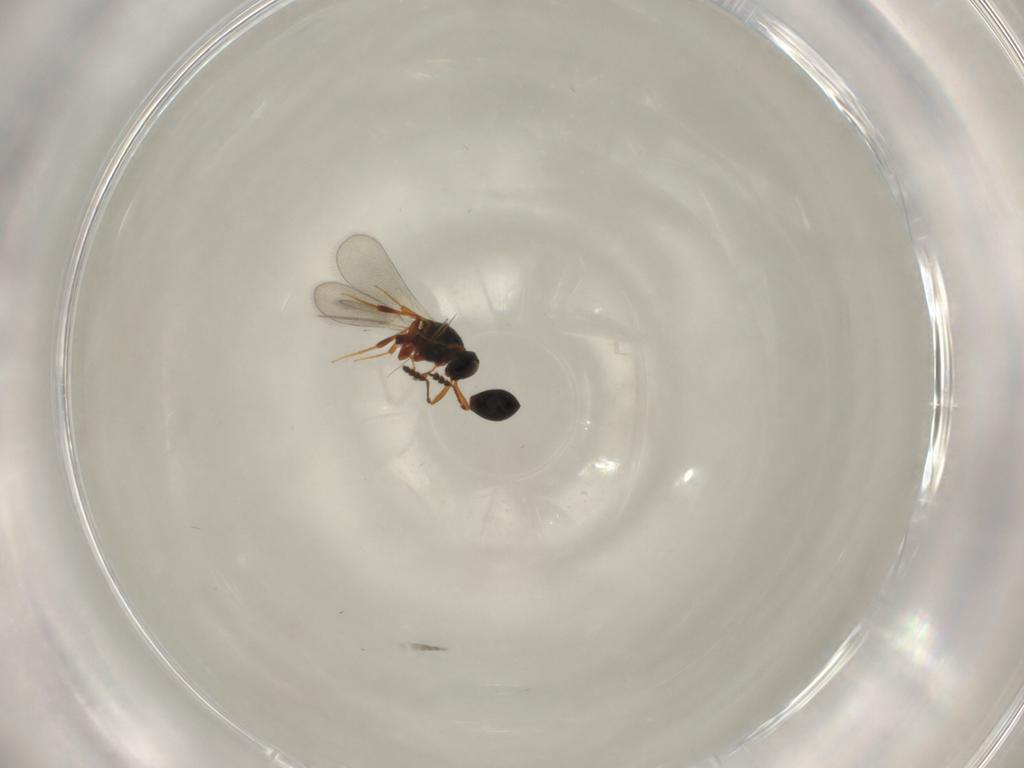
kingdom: Animalia
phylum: Arthropoda
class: Insecta
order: Hymenoptera
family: Platygastridae
